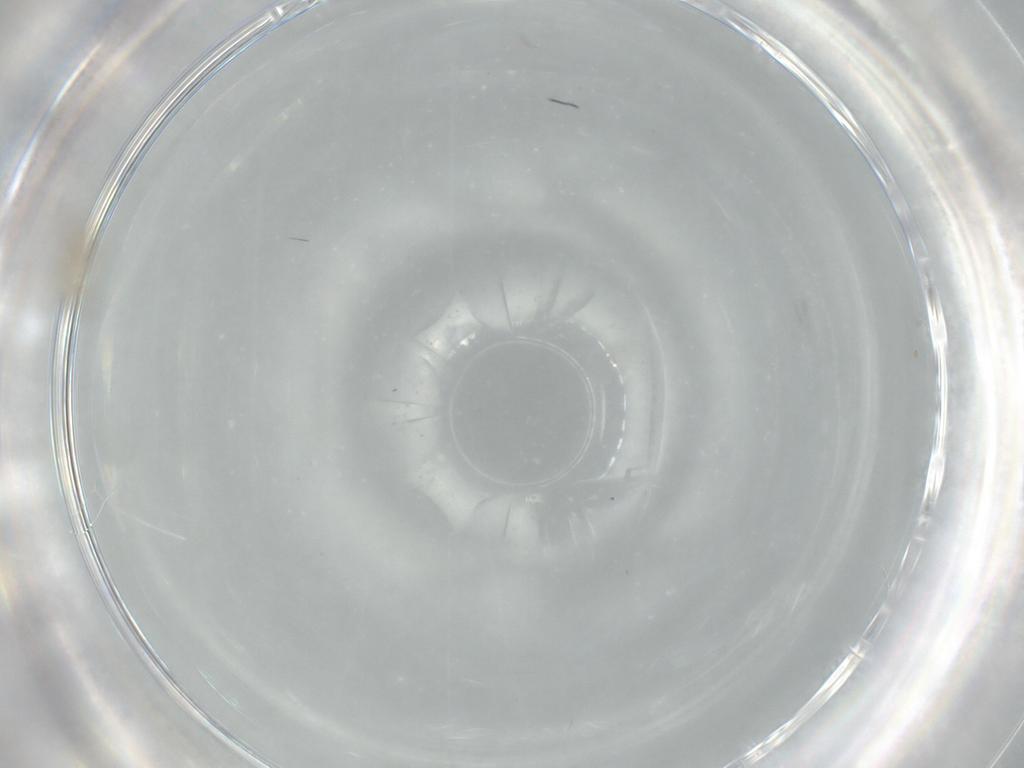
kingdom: Animalia
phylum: Arthropoda
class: Insecta
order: Diptera
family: Cecidomyiidae
